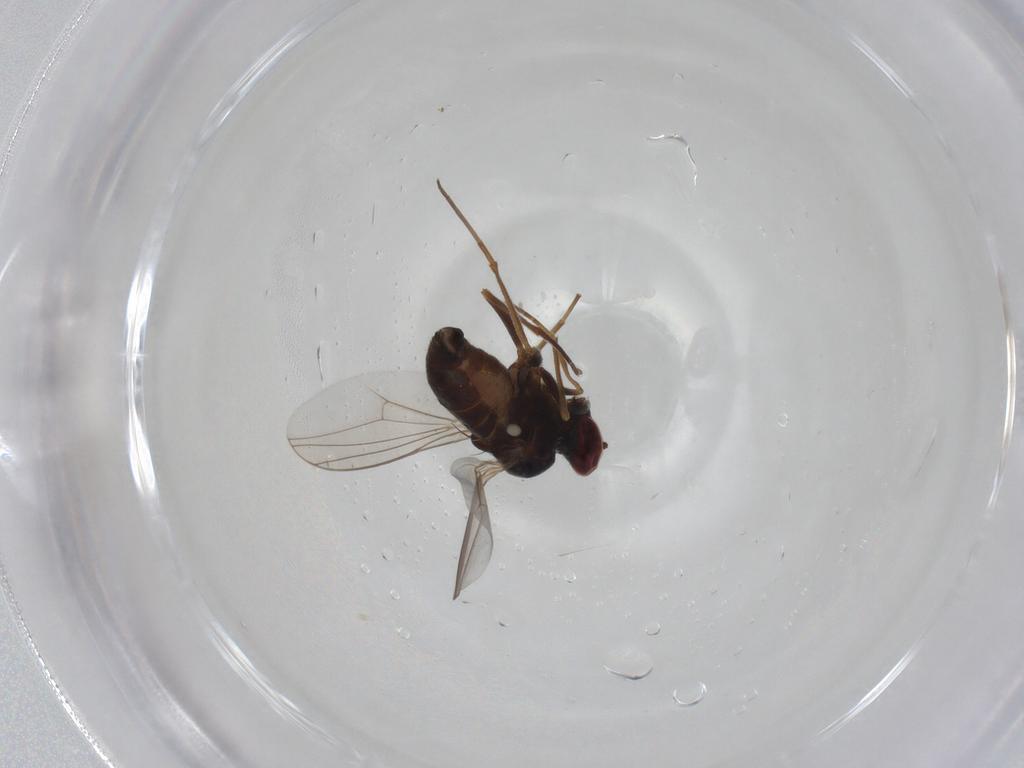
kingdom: Animalia
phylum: Arthropoda
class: Insecta
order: Diptera
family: Dolichopodidae
